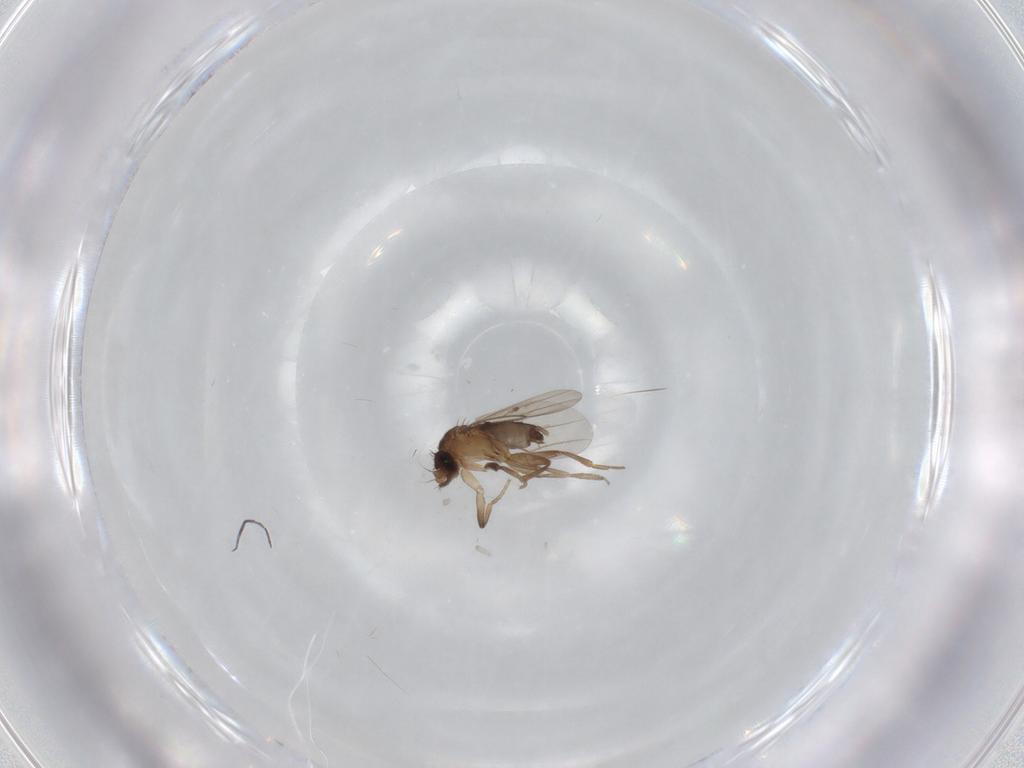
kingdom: Animalia
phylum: Arthropoda
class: Insecta
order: Diptera
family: Phoridae
